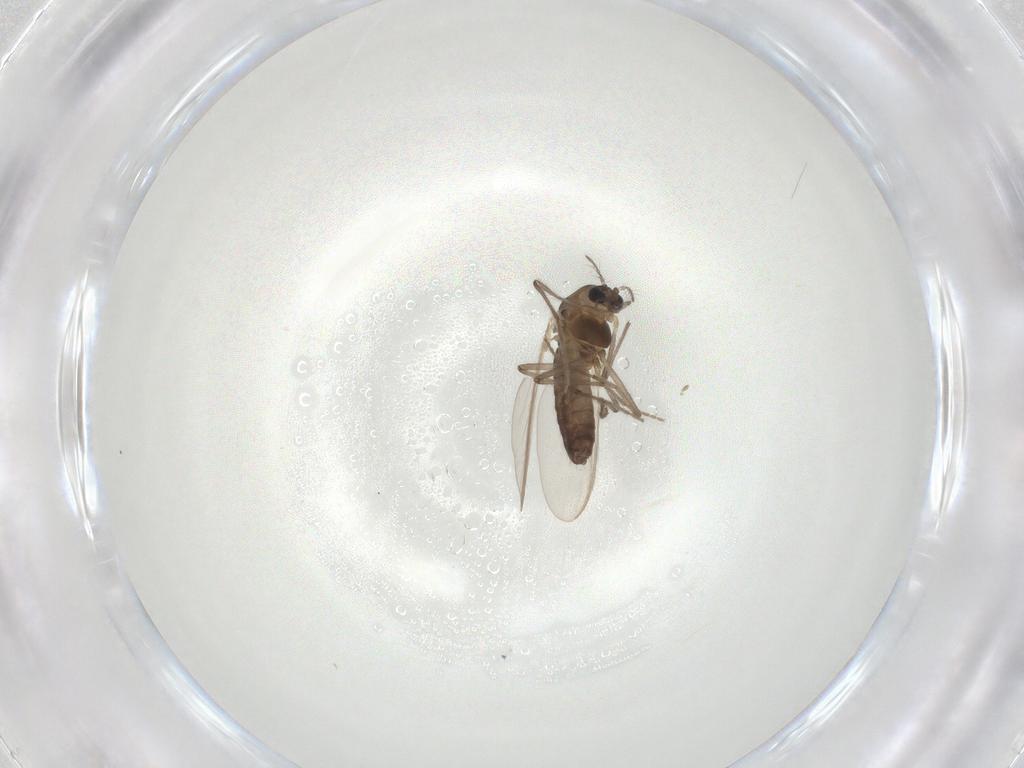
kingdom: Animalia
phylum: Arthropoda
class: Insecta
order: Diptera
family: Chironomidae
